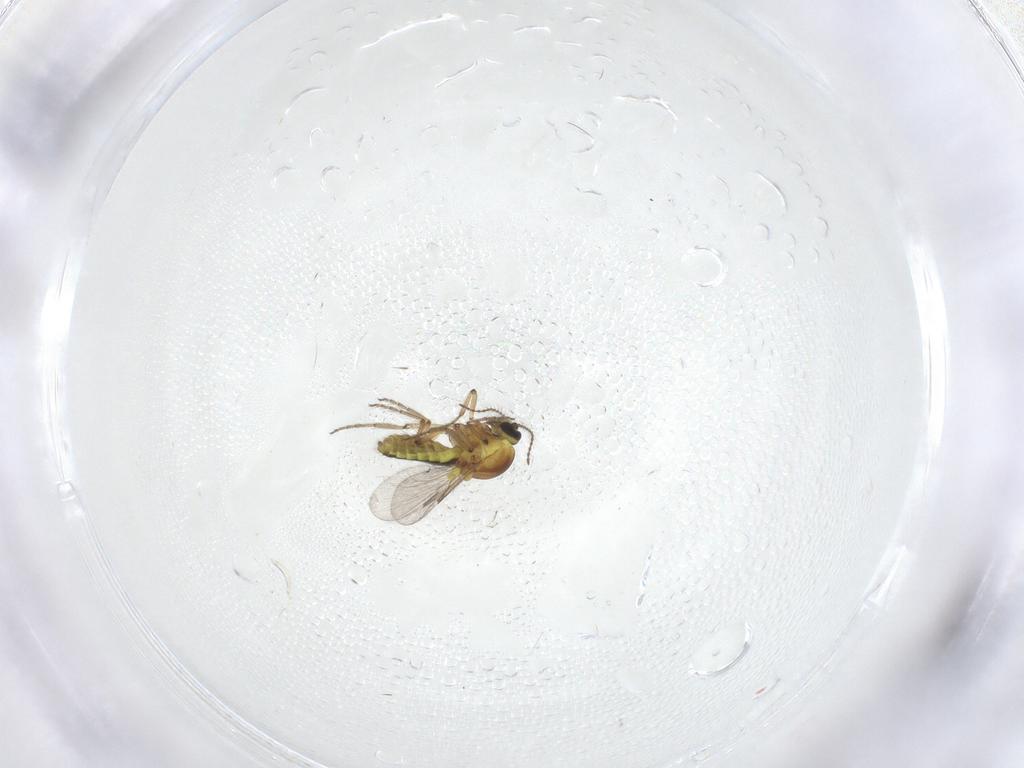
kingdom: Animalia
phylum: Arthropoda
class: Insecta
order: Diptera
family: Ceratopogonidae
